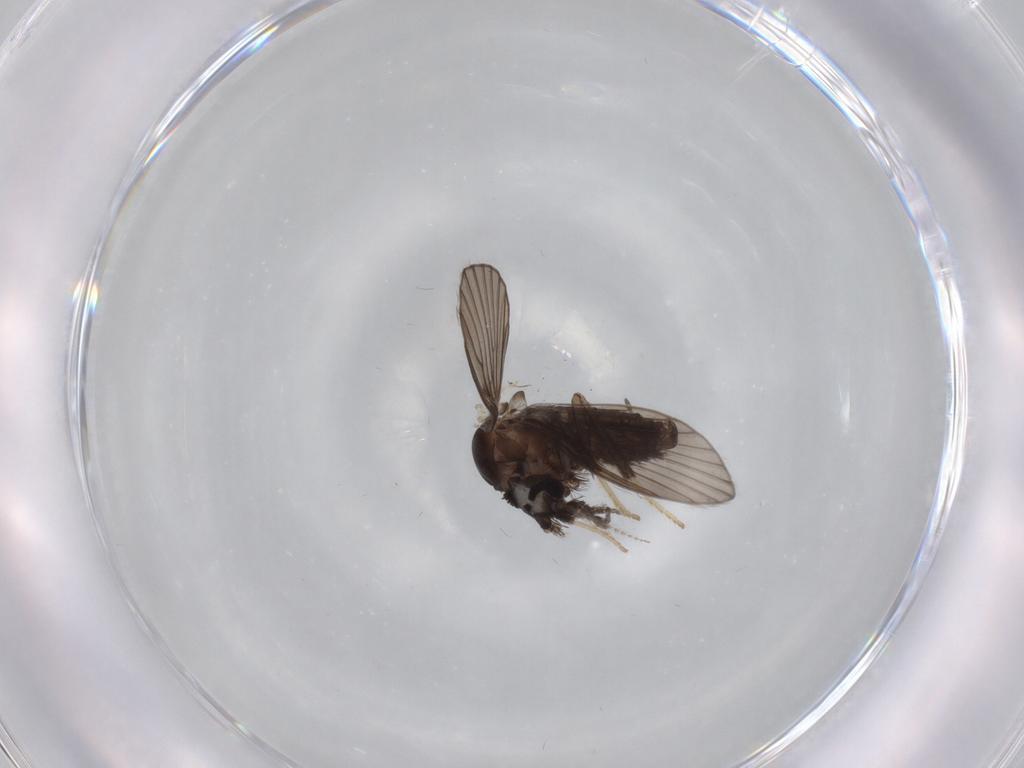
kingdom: Animalia
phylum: Arthropoda
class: Insecta
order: Diptera
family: Psychodidae
